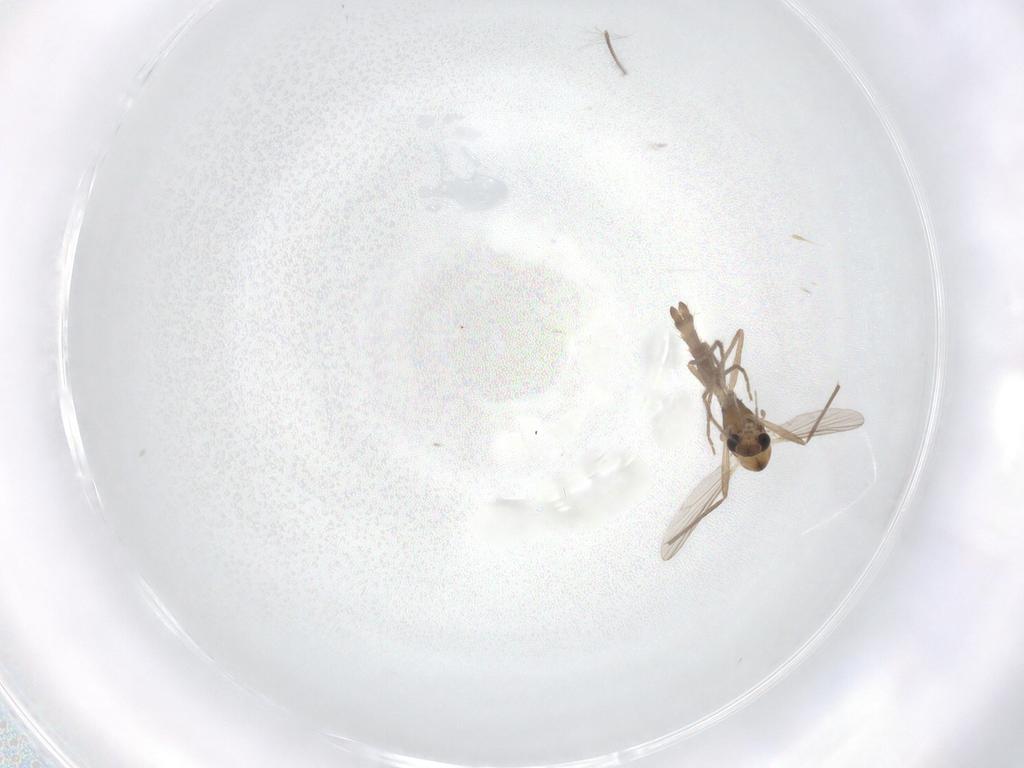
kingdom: Animalia
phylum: Arthropoda
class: Insecta
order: Diptera
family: Chironomidae
